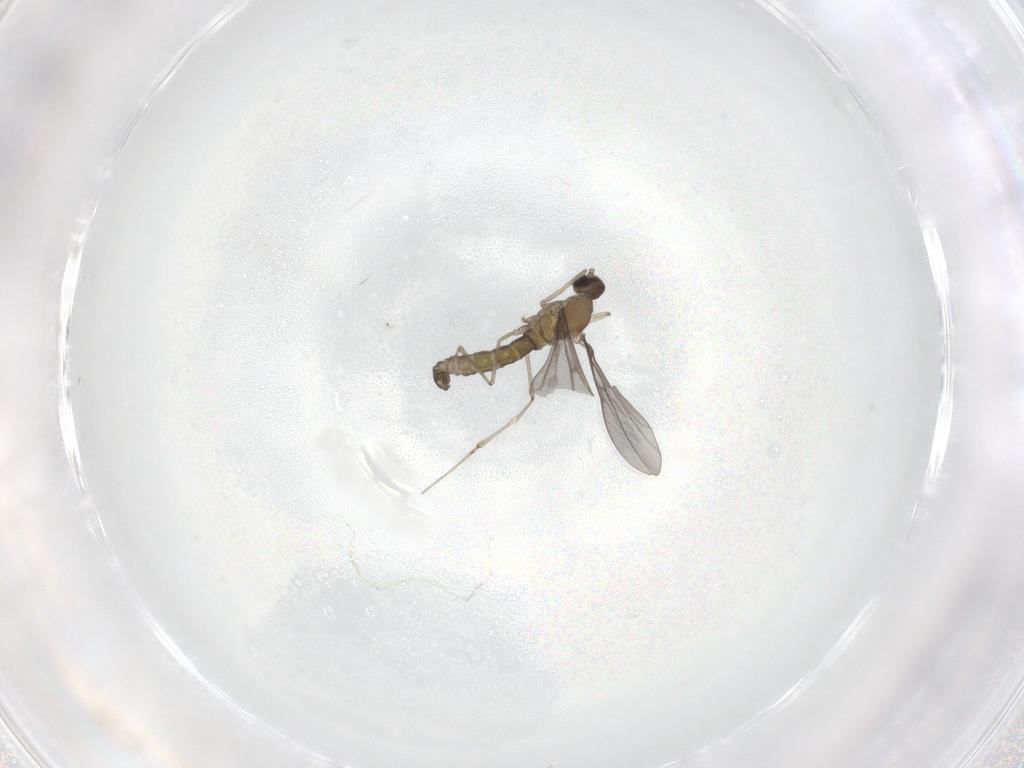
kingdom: Animalia
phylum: Arthropoda
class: Insecta
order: Diptera
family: Cecidomyiidae
